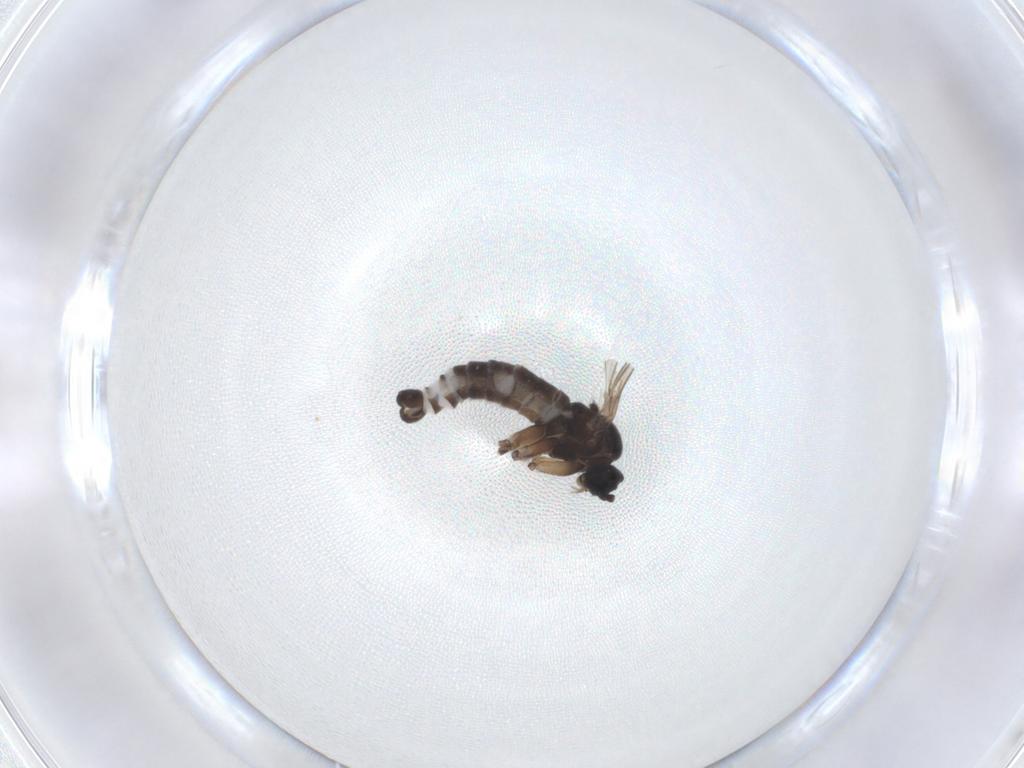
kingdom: Animalia
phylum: Arthropoda
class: Insecta
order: Diptera
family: Sciaridae
